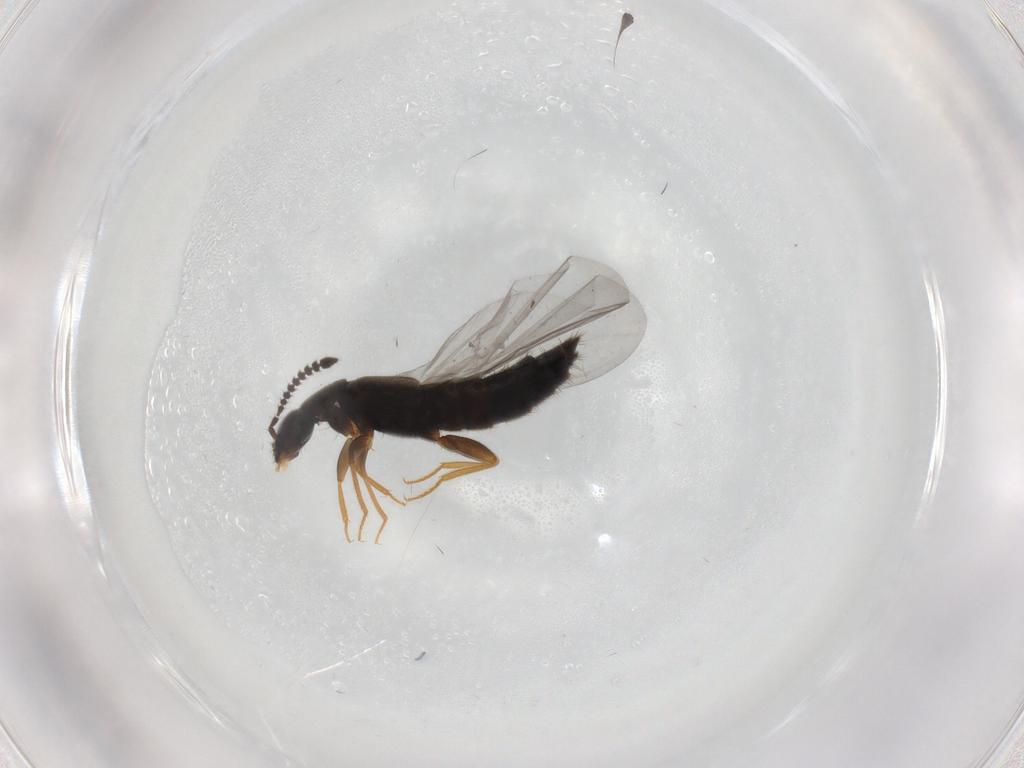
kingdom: Animalia
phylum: Arthropoda
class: Insecta
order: Coleoptera
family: Staphylinidae
